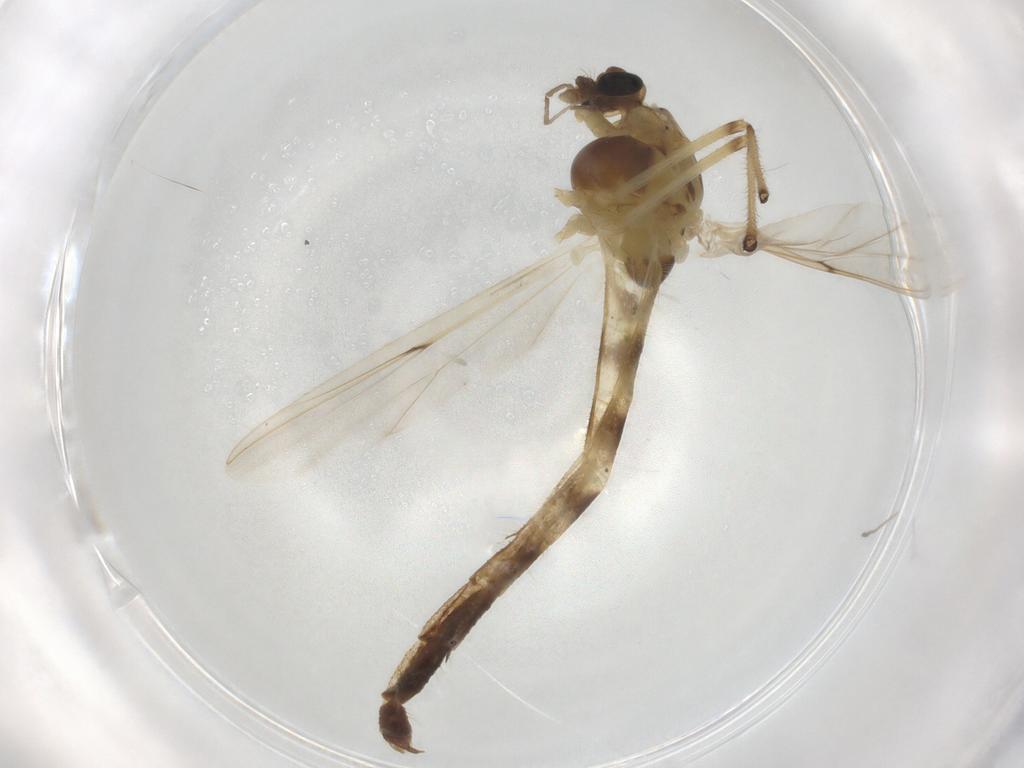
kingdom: Animalia
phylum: Arthropoda
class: Insecta
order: Diptera
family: Phoridae
